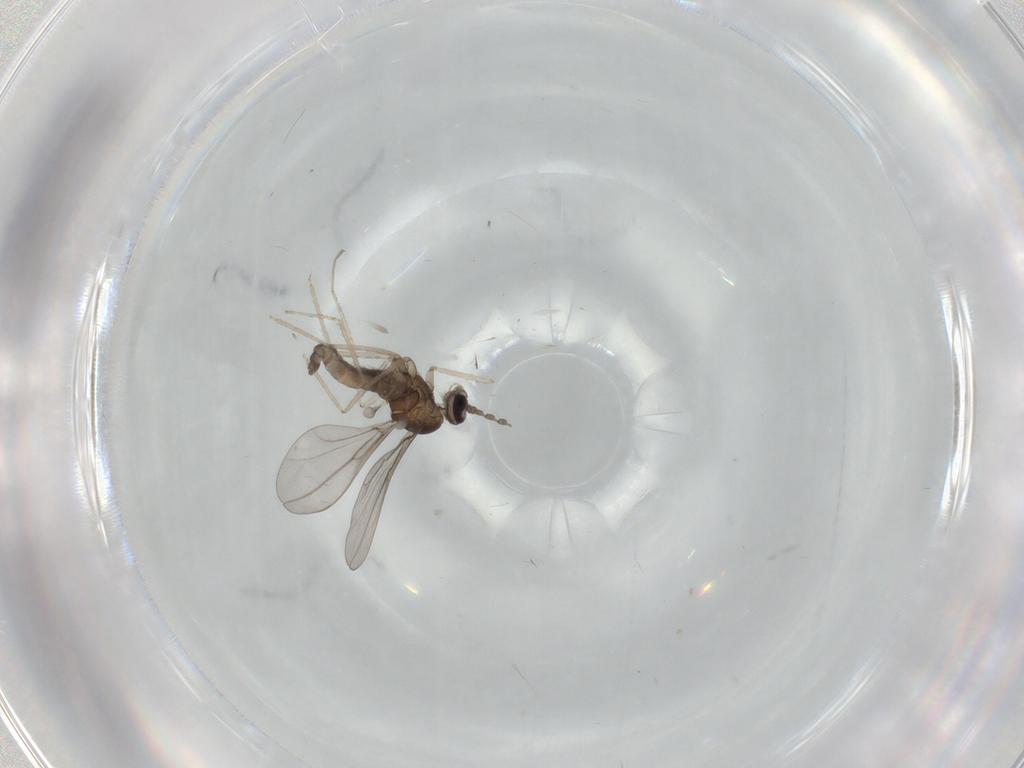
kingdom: Animalia
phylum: Arthropoda
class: Insecta
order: Diptera
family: Cecidomyiidae
